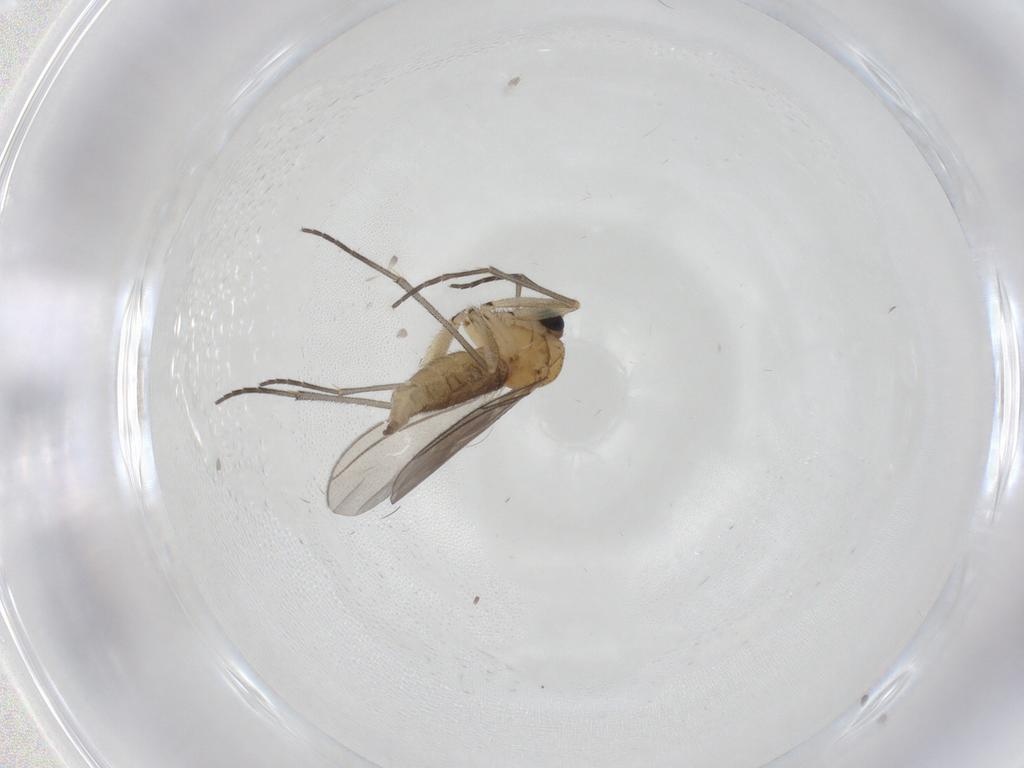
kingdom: Animalia
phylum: Arthropoda
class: Insecta
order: Diptera
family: Sciaridae
